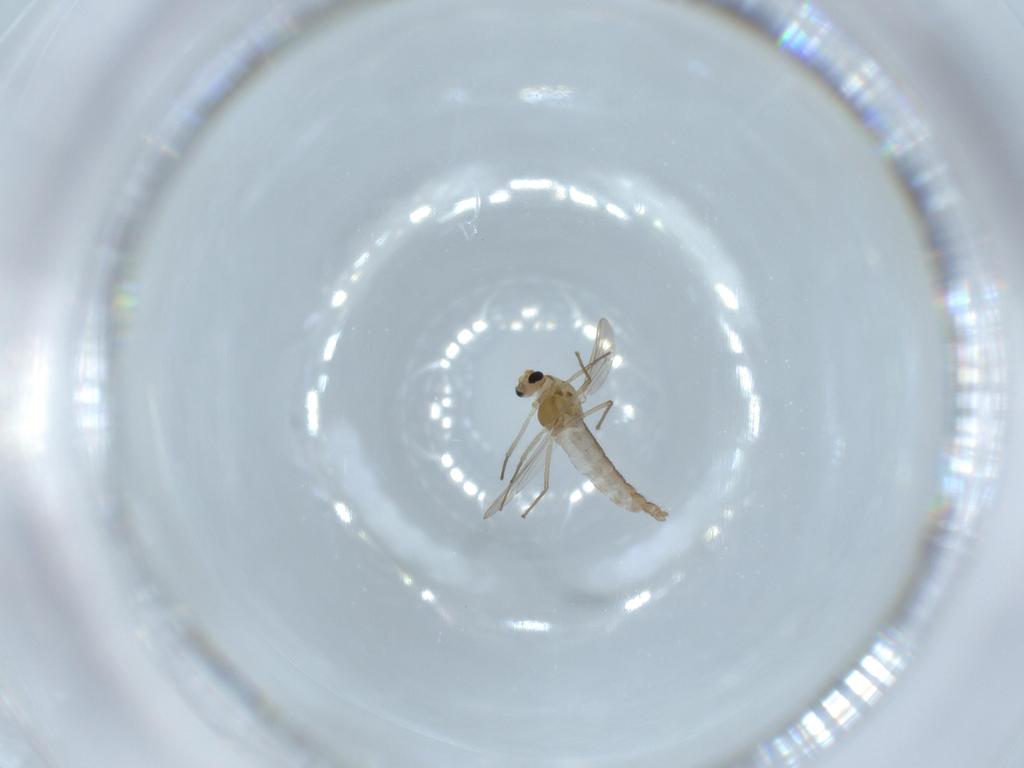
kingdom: Animalia
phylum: Arthropoda
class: Insecta
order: Diptera
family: Chironomidae
